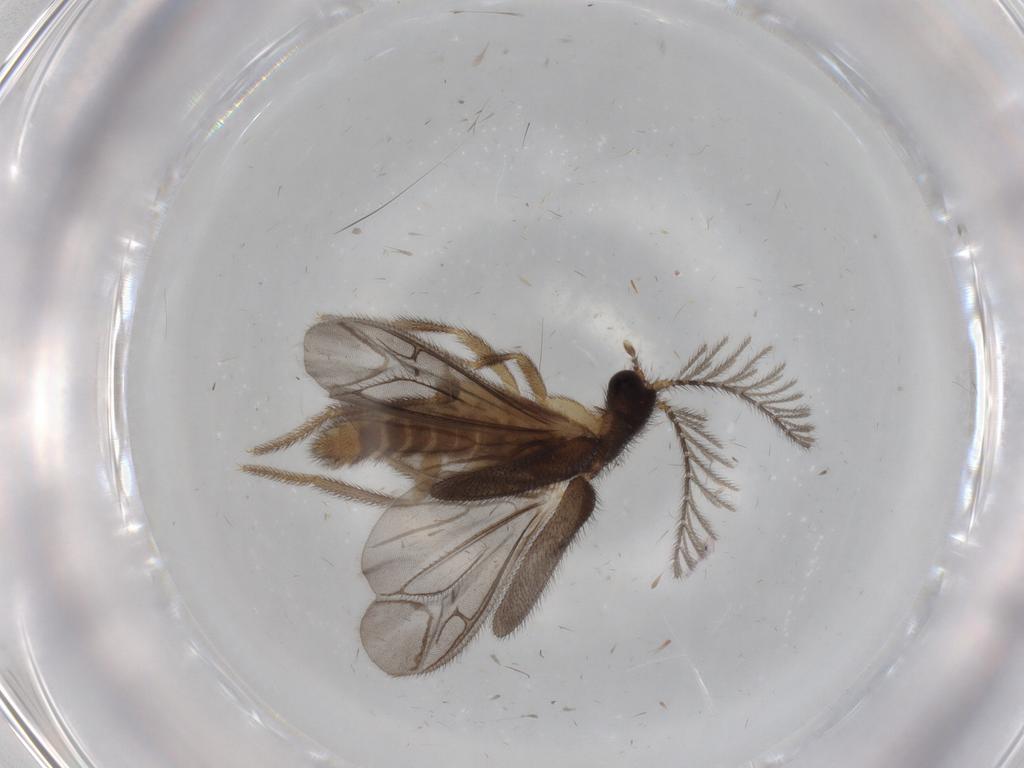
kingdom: Animalia
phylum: Arthropoda
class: Insecta
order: Coleoptera
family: Chrysomelidae
